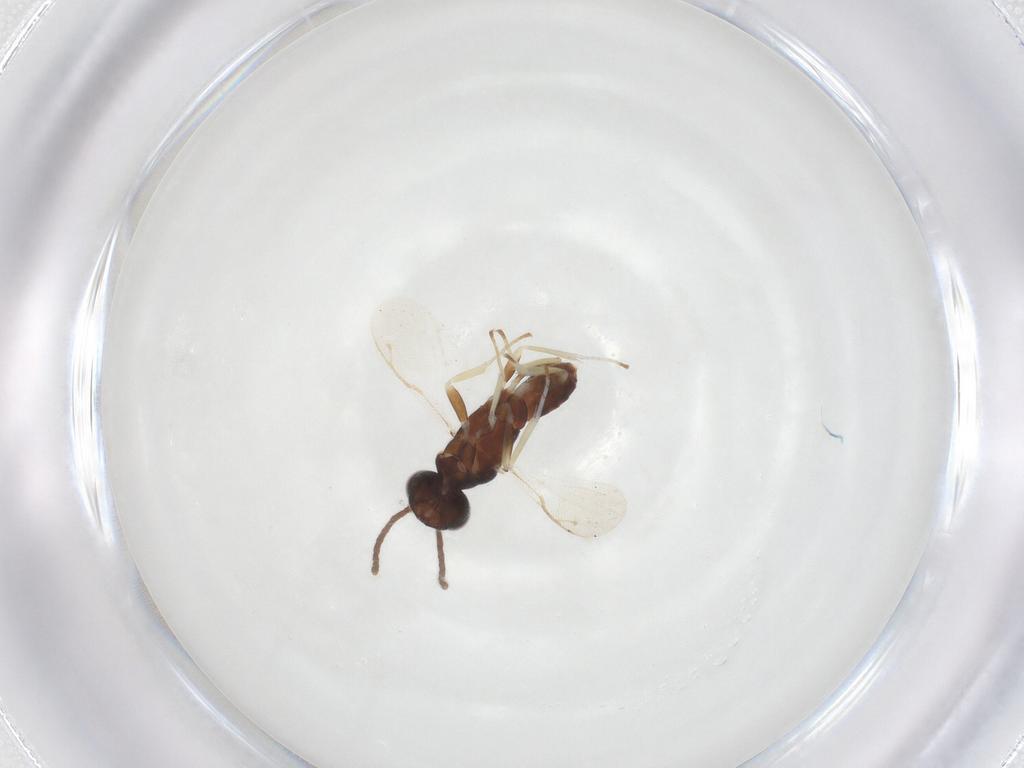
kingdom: Animalia
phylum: Arthropoda
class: Insecta
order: Hymenoptera
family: Eupelmidae
